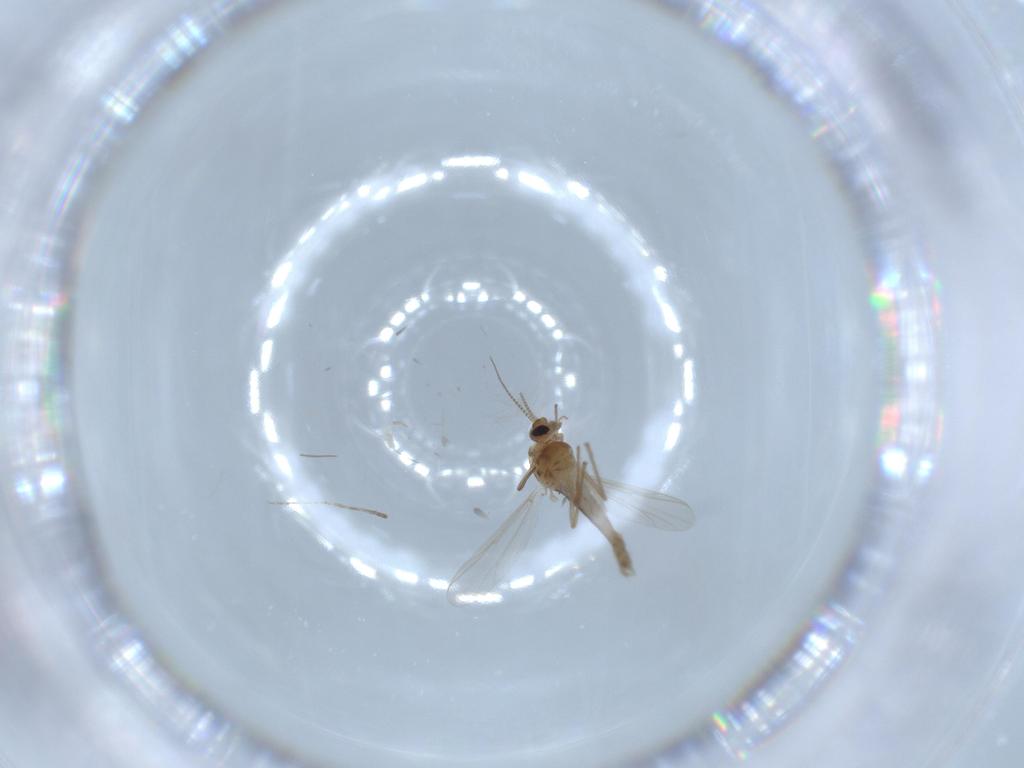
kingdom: Animalia
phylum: Arthropoda
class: Insecta
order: Diptera
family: Chironomidae
